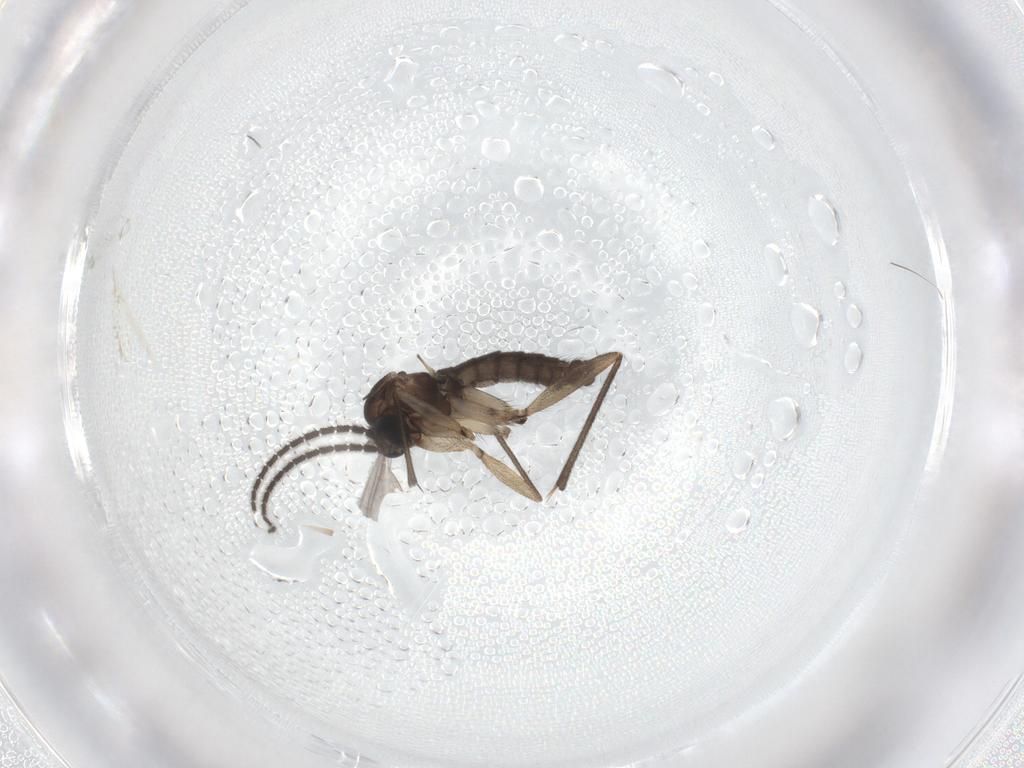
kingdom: Animalia
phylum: Arthropoda
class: Insecta
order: Diptera
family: Sciaridae
